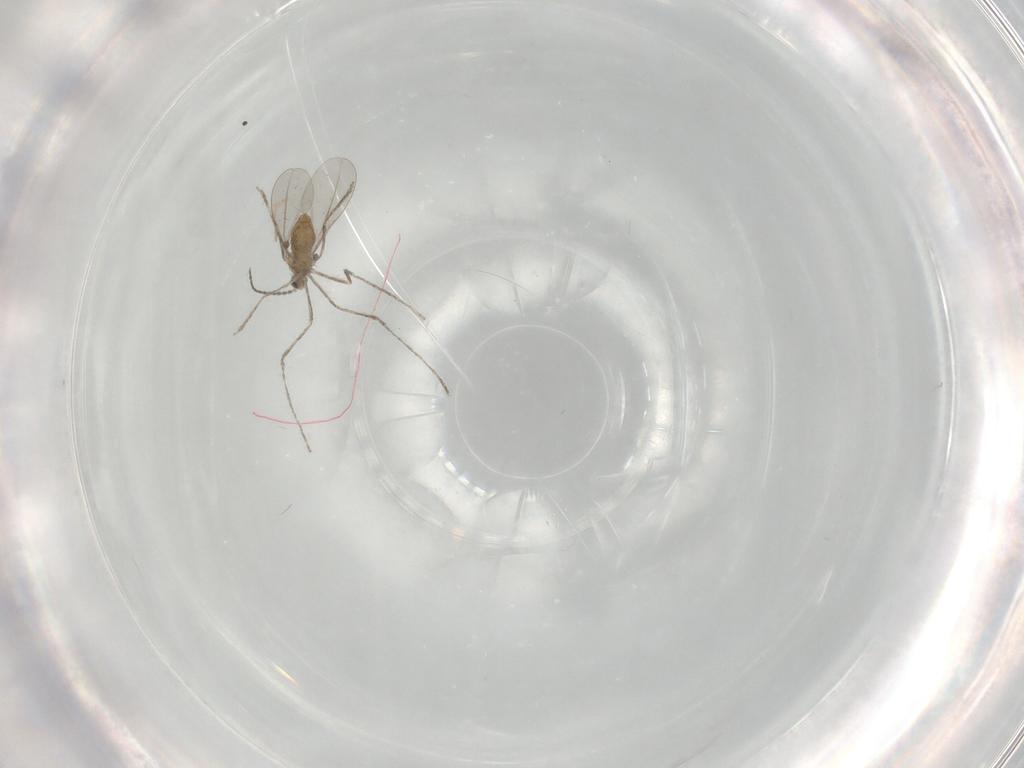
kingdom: Animalia
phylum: Arthropoda
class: Insecta
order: Diptera
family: Cecidomyiidae
